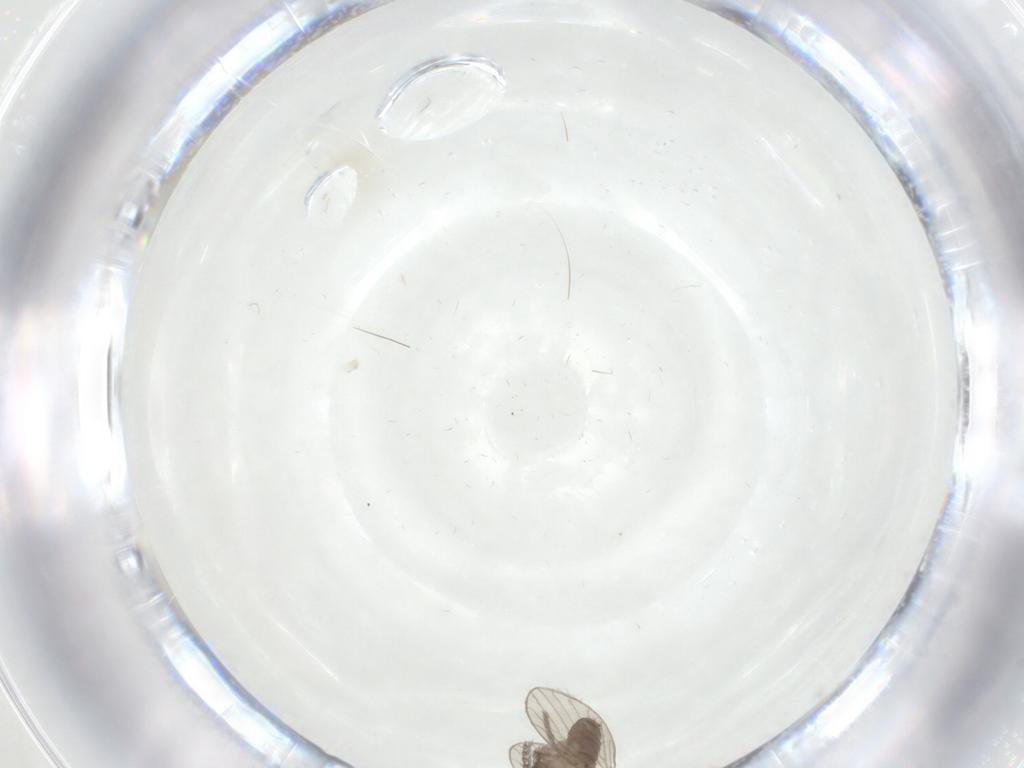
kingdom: Animalia
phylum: Arthropoda
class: Insecta
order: Diptera
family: Psychodidae
